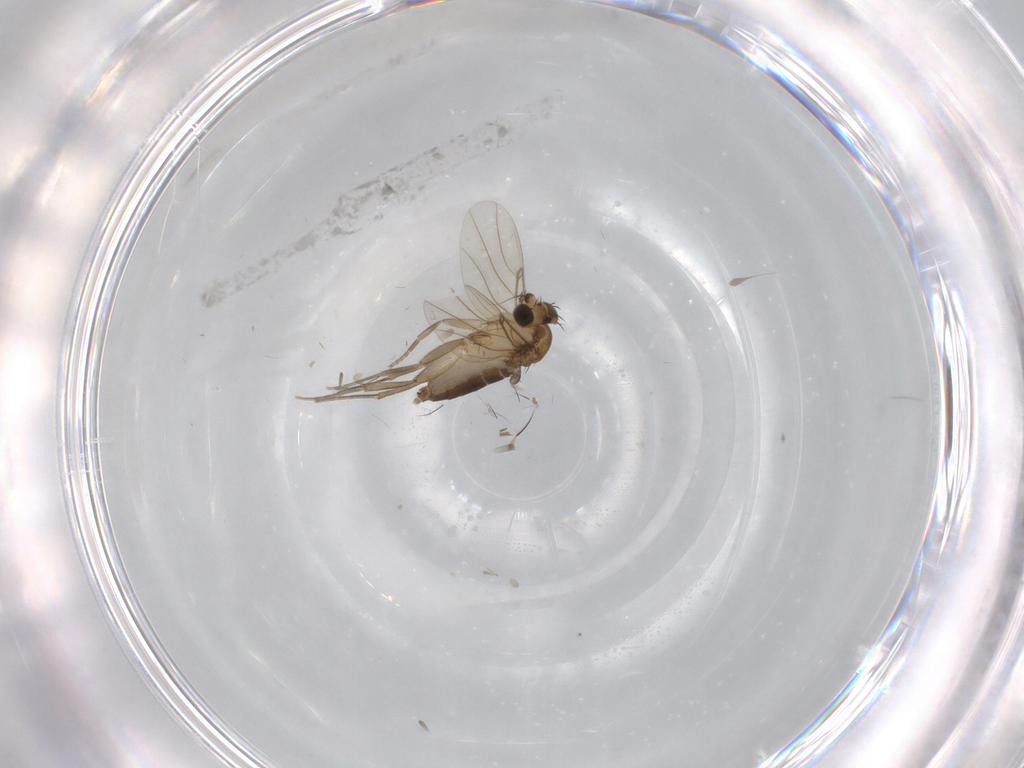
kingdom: Animalia
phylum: Arthropoda
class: Insecta
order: Diptera
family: Phoridae
